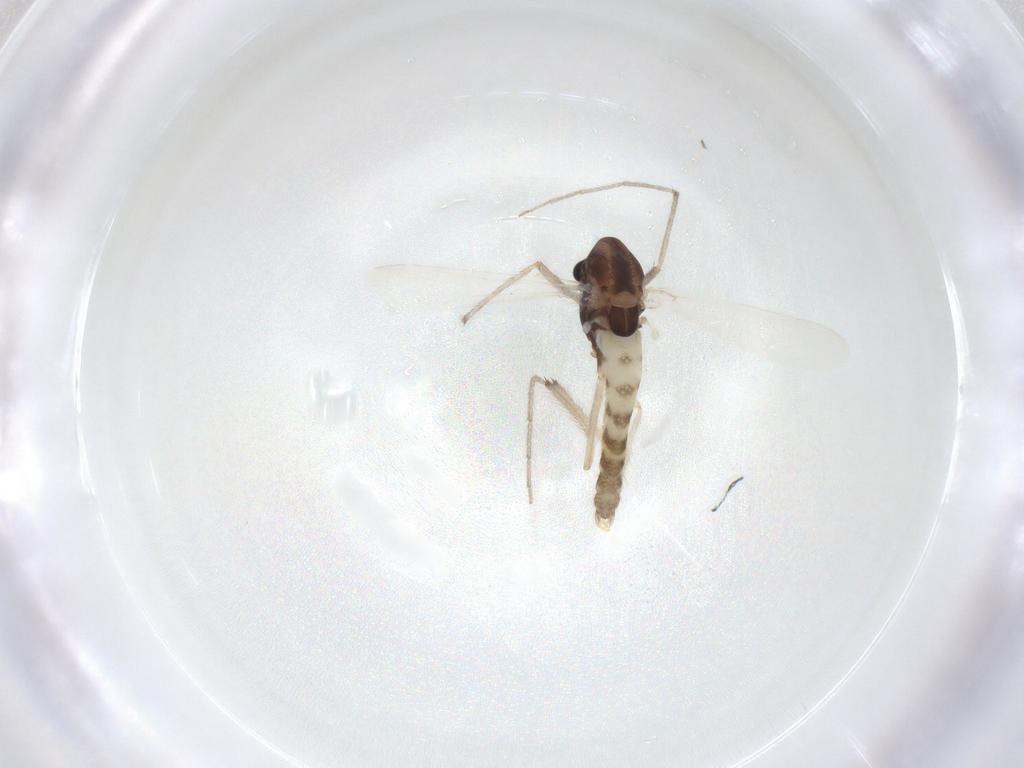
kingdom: Animalia
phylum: Arthropoda
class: Insecta
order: Diptera
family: Chironomidae
